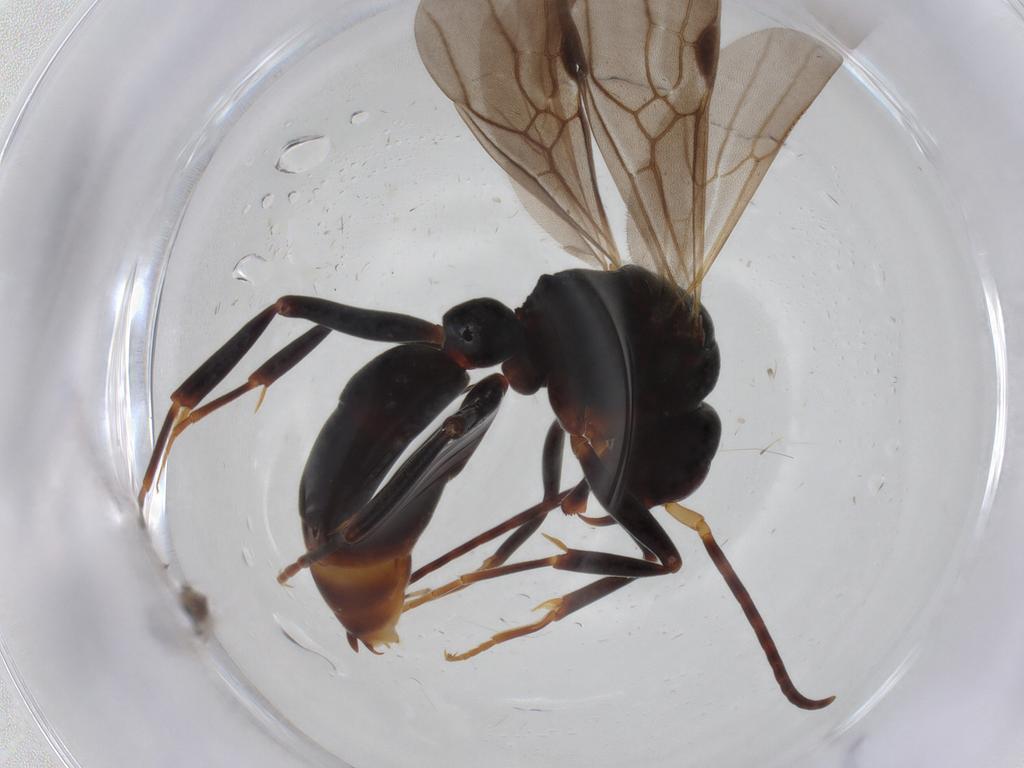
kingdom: Animalia
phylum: Arthropoda
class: Insecta
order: Hymenoptera
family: Formicidae
